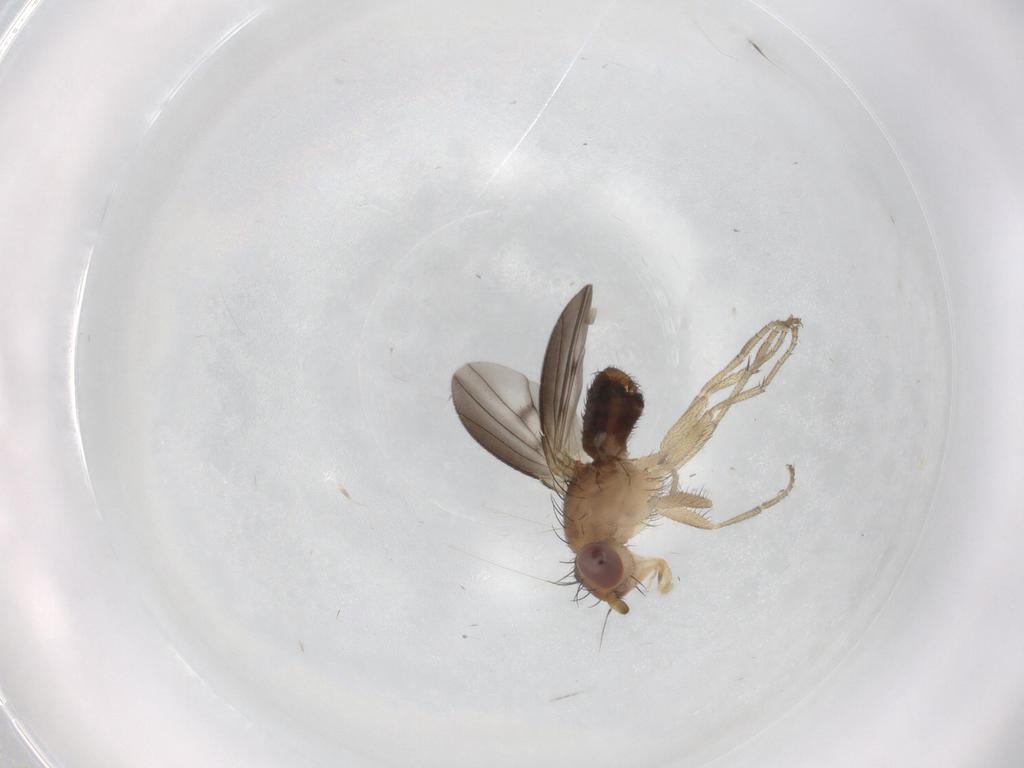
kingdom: Animalia
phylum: Arthropoda
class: Insecta
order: Diptera
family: Heleomyzidae
